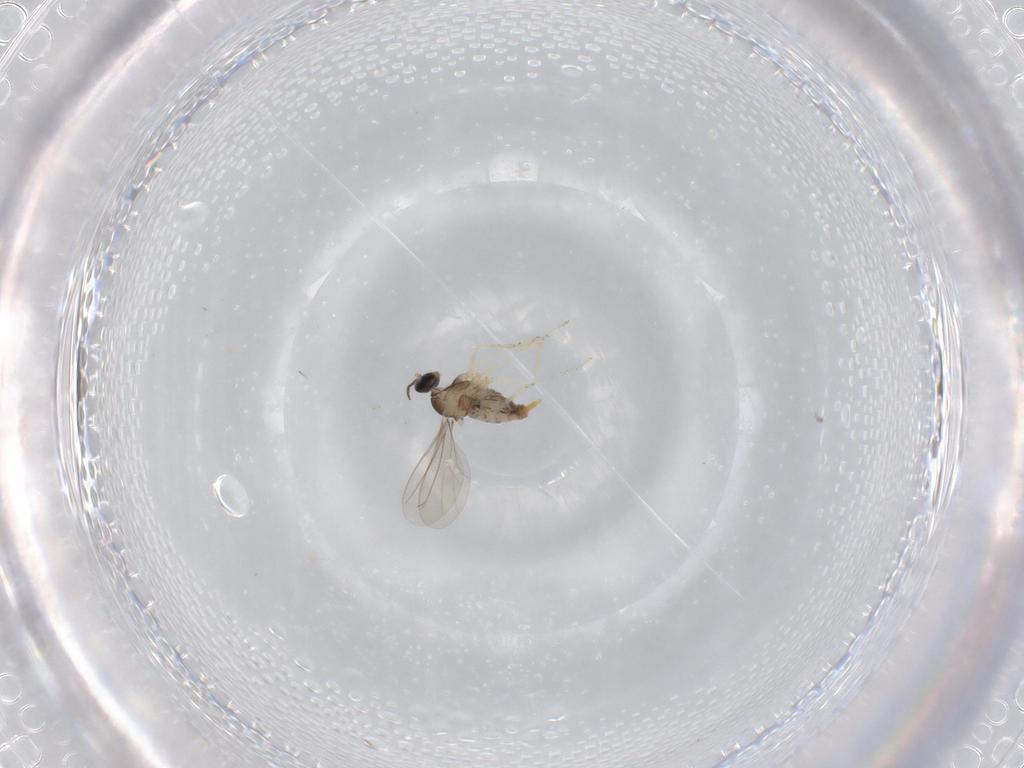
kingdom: Animalia
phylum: Arthropoda
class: Insecta
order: Diptera
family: Cecidomyiidae
